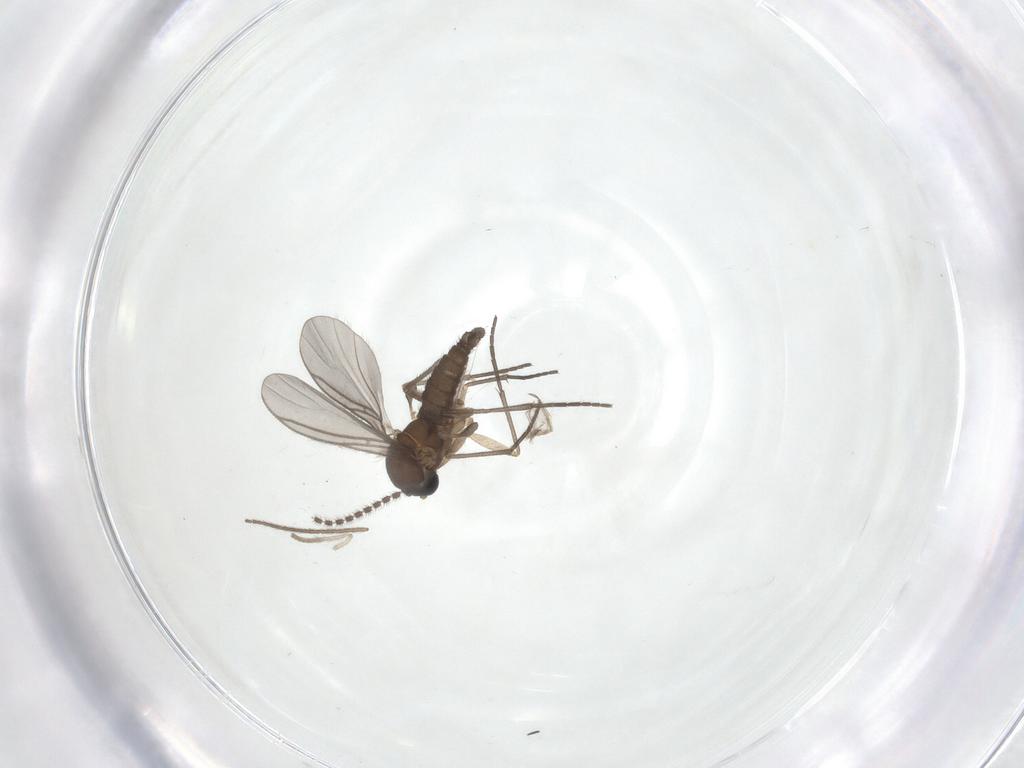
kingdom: Animalia
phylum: Arthropoda
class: Insecta
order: Diptera
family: Sciaridae
